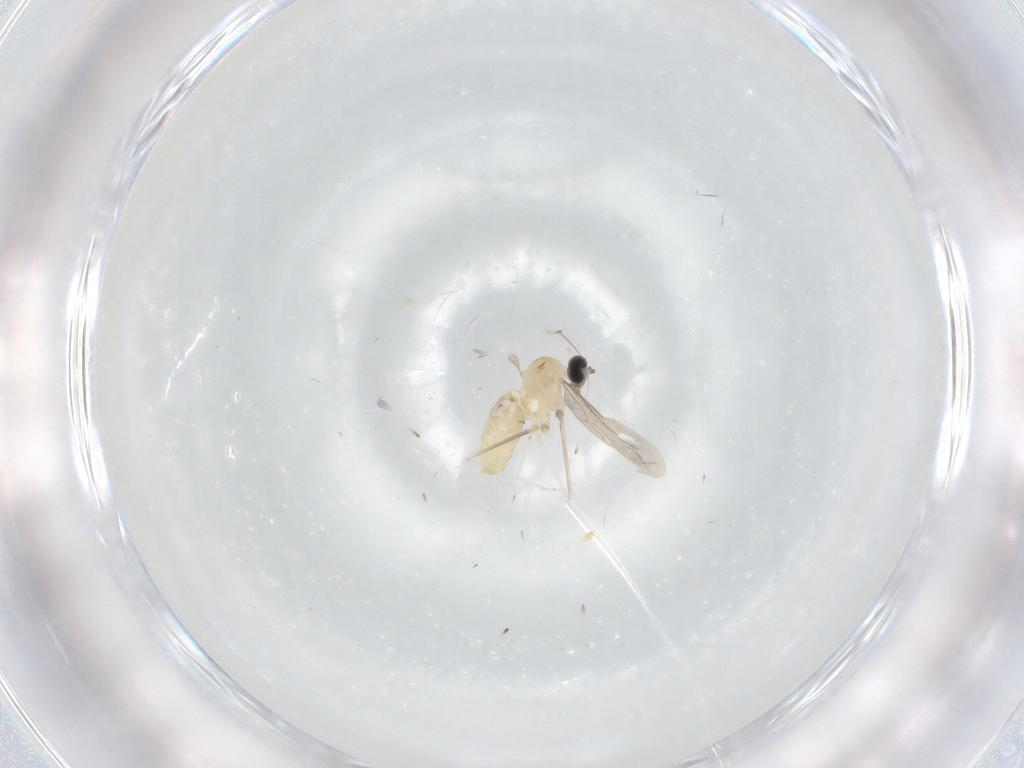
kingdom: Animalia
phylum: Arthropoda
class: Insecta
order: Diptera
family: Cecidomyiidae
